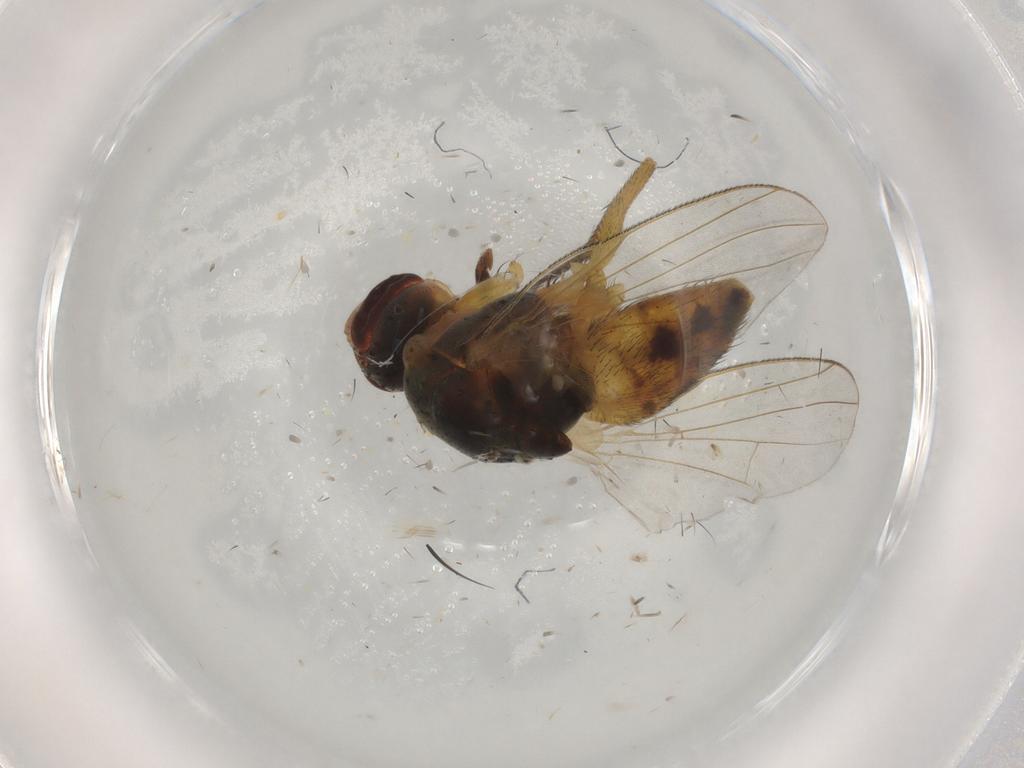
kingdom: Animalia
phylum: Arthropoda
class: Insecta
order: Diptera
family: Muscidae
